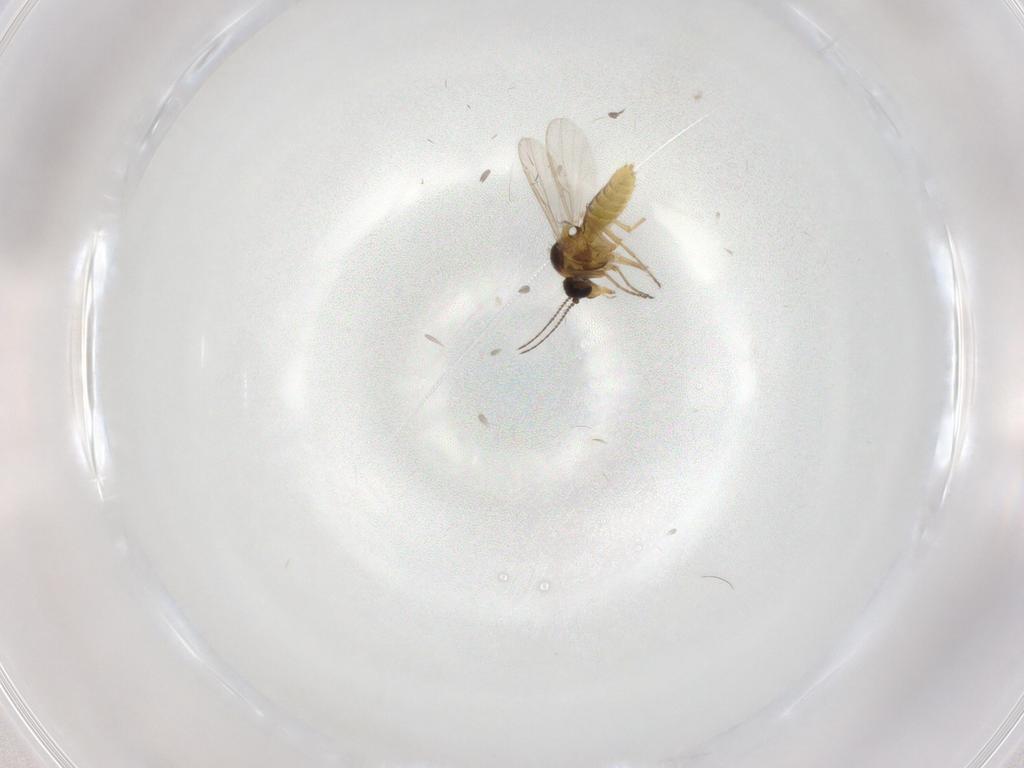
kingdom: Animalia
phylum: Arthropoda
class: Insecta
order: Diptera
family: Ceratopogonidae
